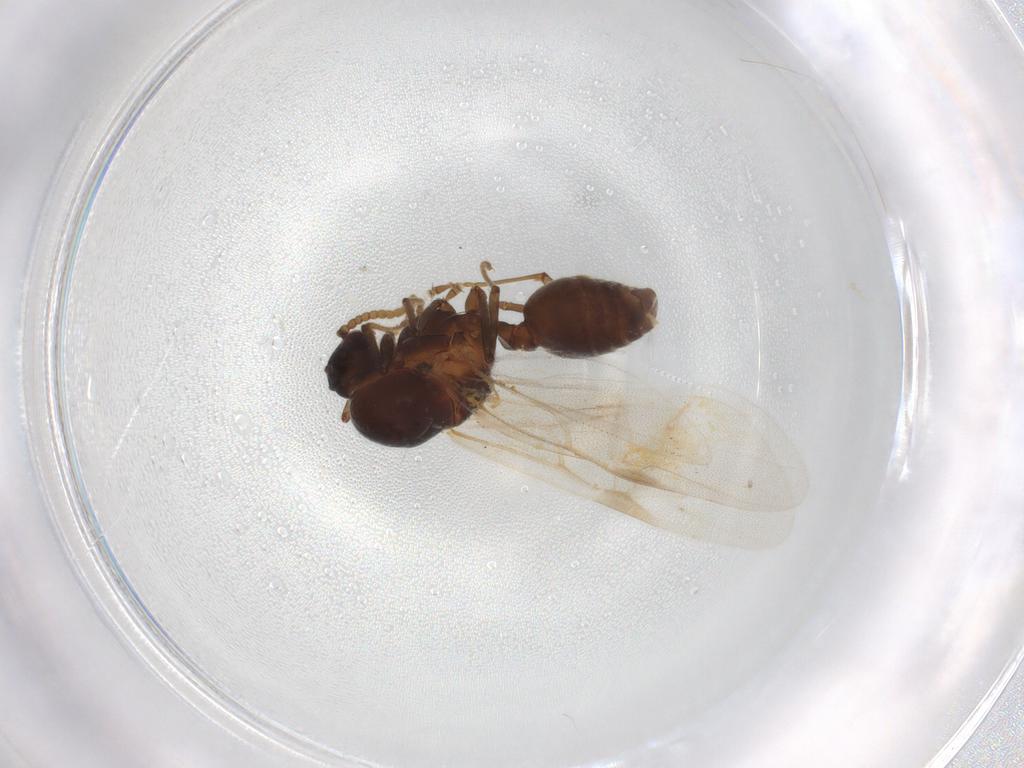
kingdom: Animalia
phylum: Arthropoda
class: Insecta
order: Hymenoptera
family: Formicidae
